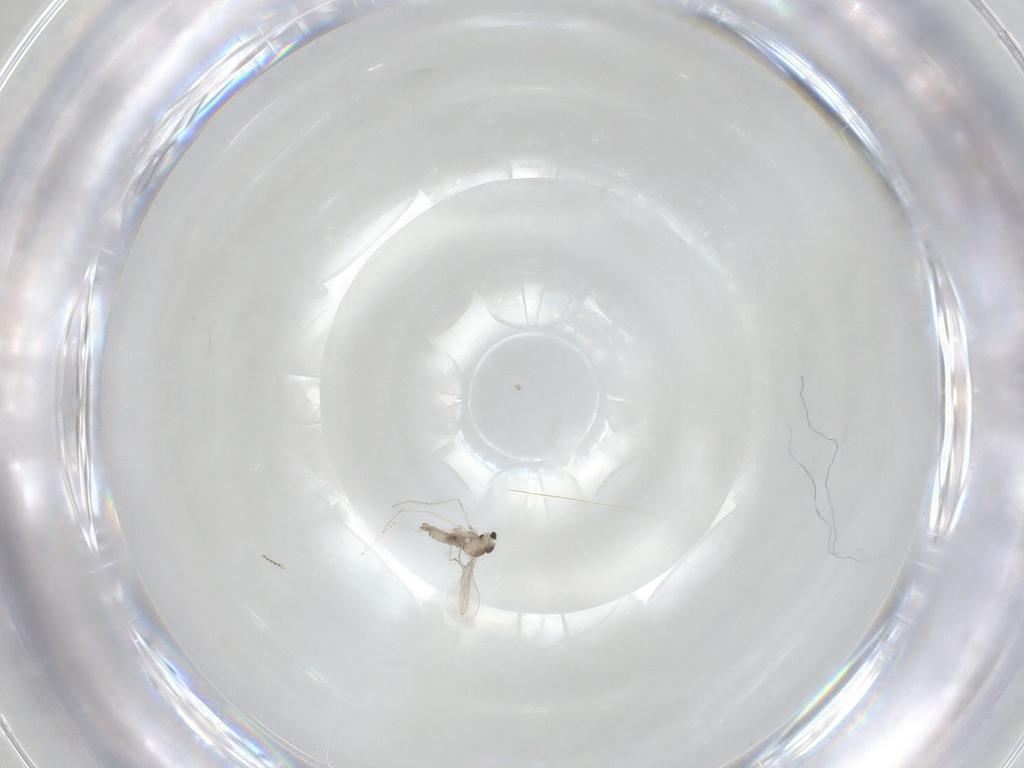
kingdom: Animalia
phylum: Arthropoda
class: Insecta
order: Diptera
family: Cecidomyiidae
